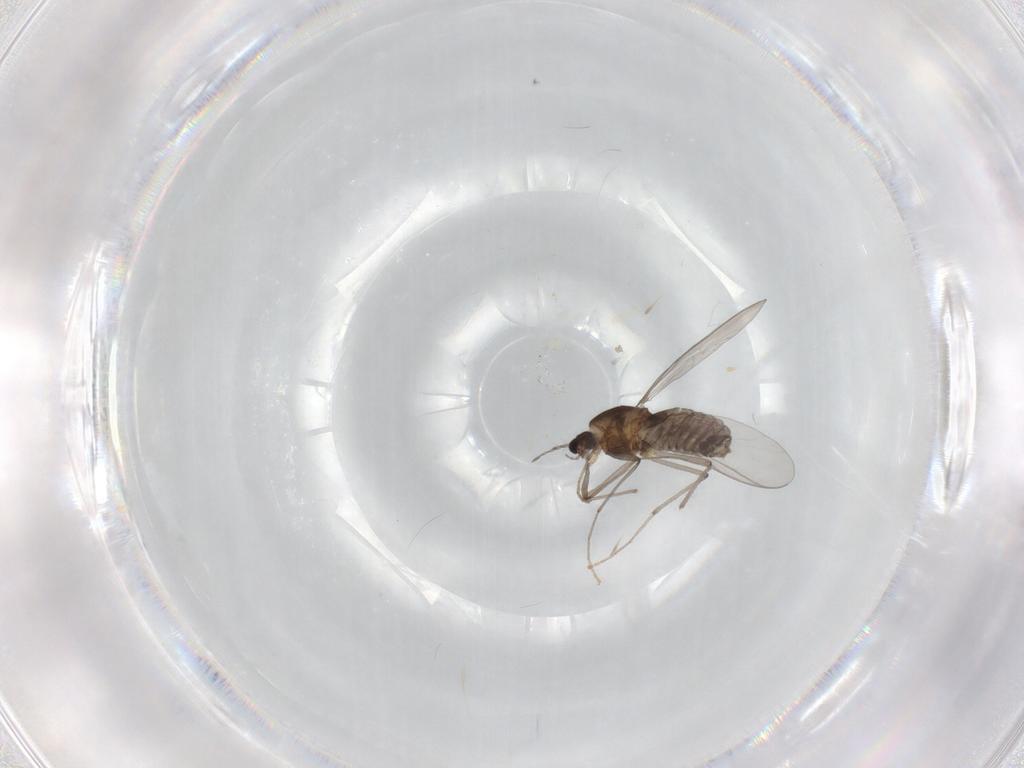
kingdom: Animalia
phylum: Arthropoda
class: Insecta
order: Diptera
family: Chironomidae
